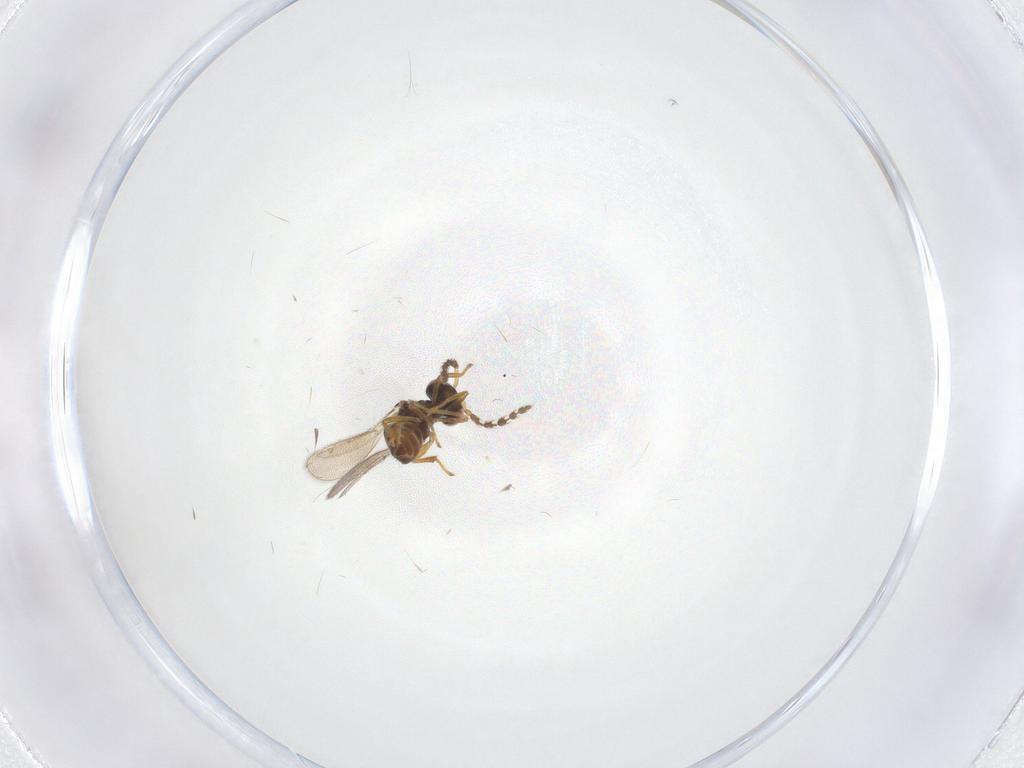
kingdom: Animalia
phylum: Arthropoda
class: Insecta
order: Hymenoptera
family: Eulophidae
